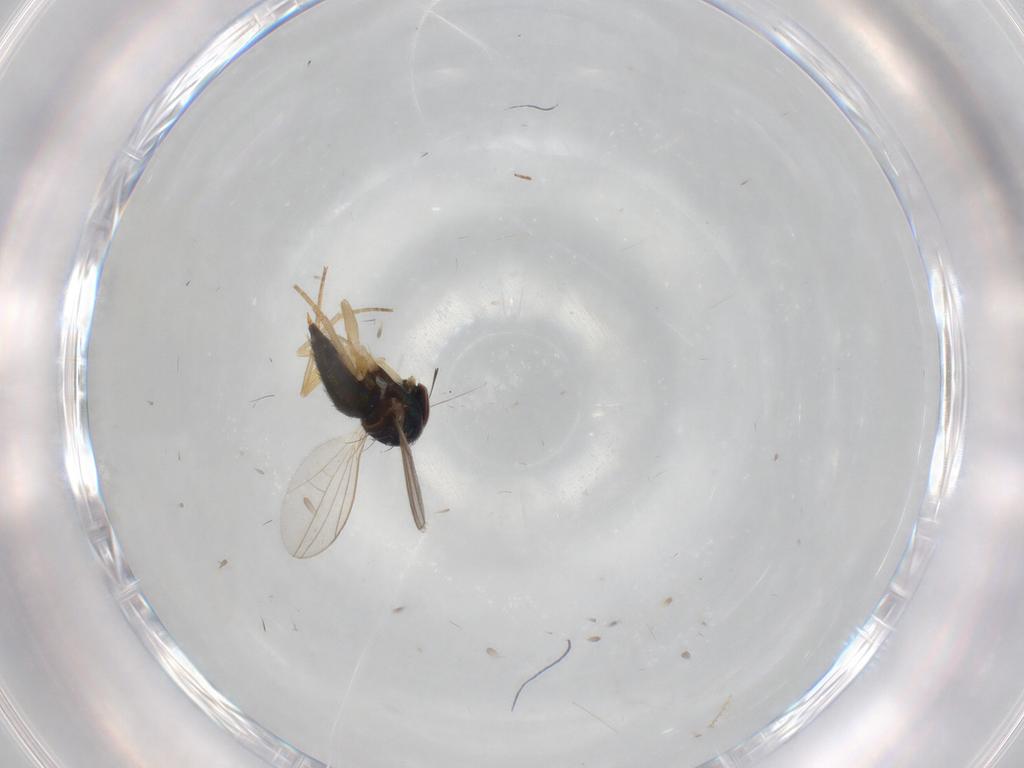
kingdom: Animalia
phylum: Arthropoda
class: Insecta
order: Diptera
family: Dolichopodidae
